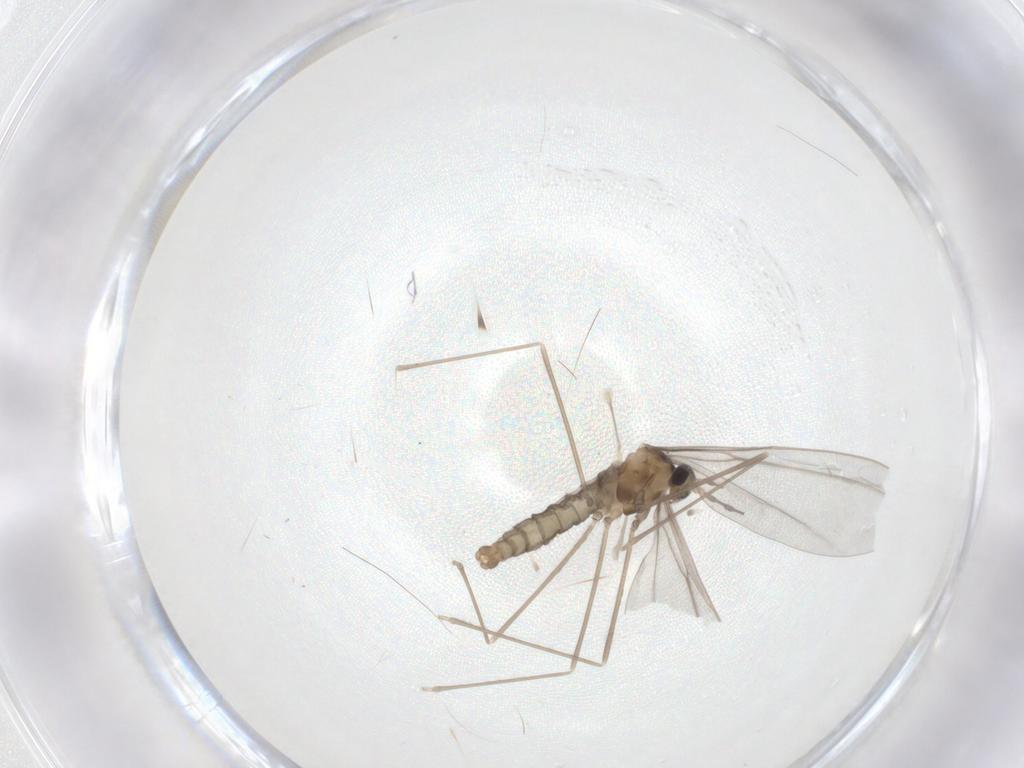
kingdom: Animalia
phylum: Arthropoda
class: Insecta
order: Diptera
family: Cecidomyiidae
